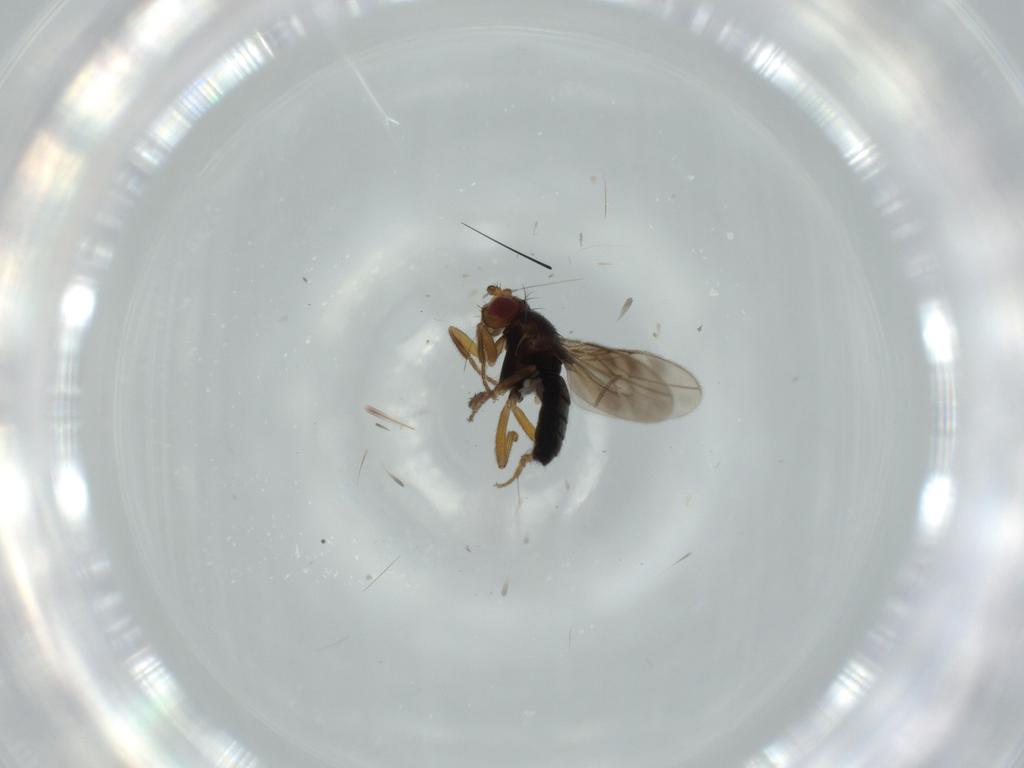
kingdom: Animalia
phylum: Arthropoda
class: Insecta
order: Diptera
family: Sphaeroceridae
